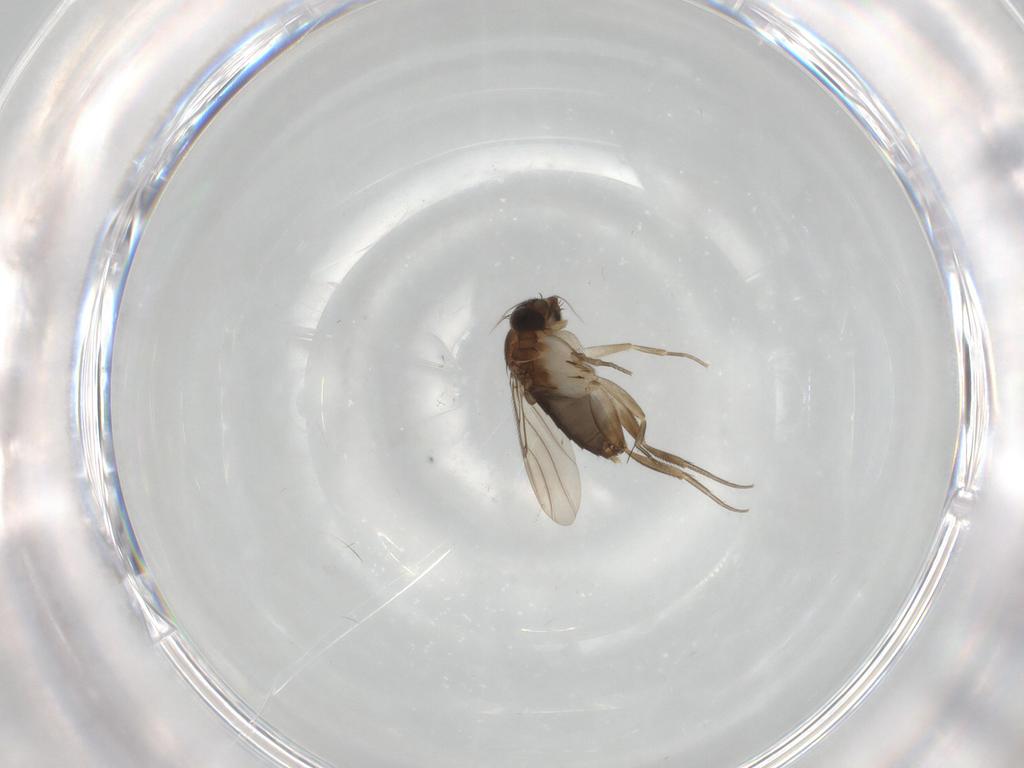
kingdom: Animalia
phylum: Arthropoda
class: Insecta
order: Diptera
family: Phoridae
